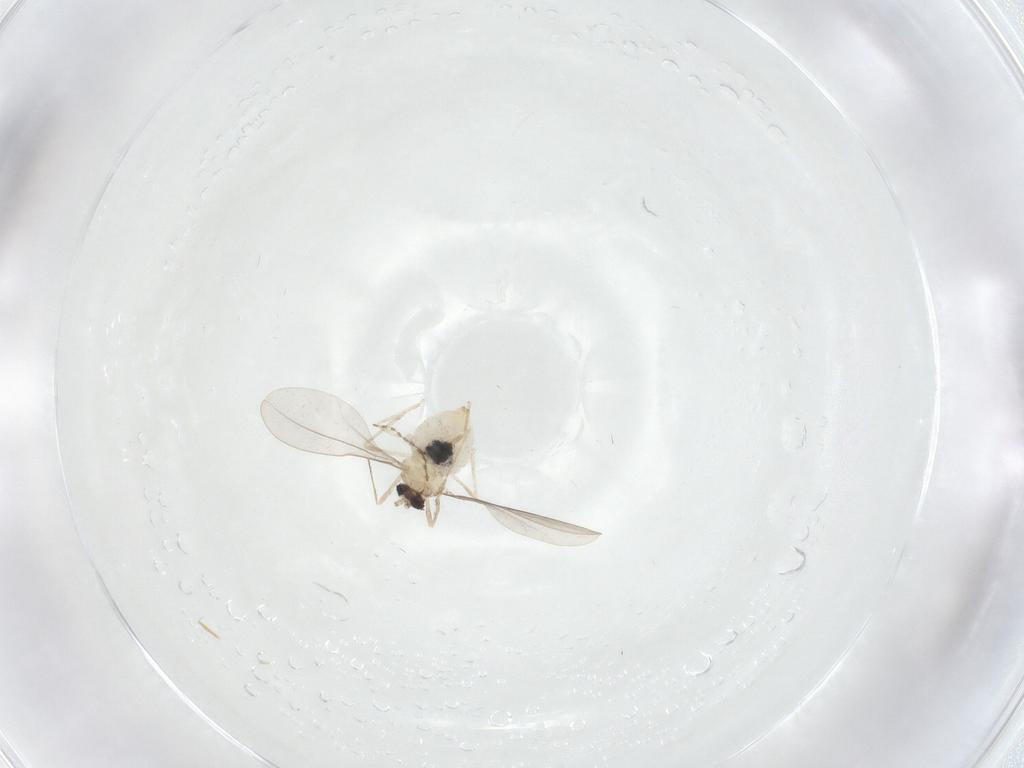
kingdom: Animalia
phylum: Arthropoda
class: Insecta
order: Diptera
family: Cecidomyiidae
